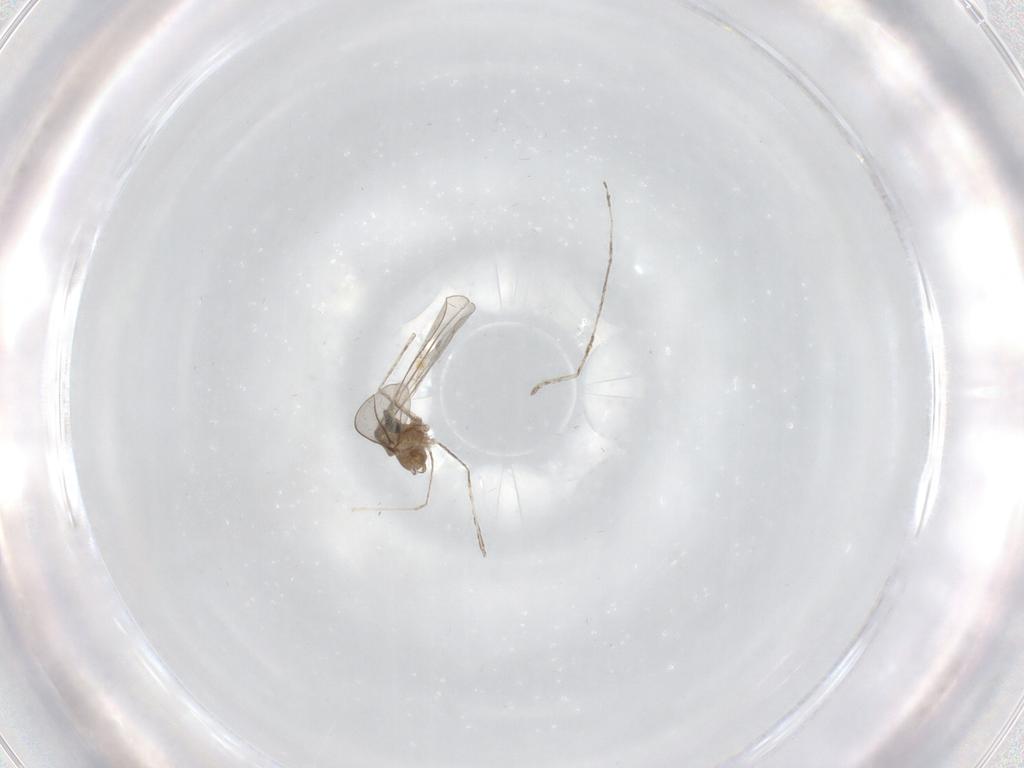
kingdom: Animalia
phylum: Arthropoda
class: Insecta
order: Diptera
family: Cecidomyiidae
